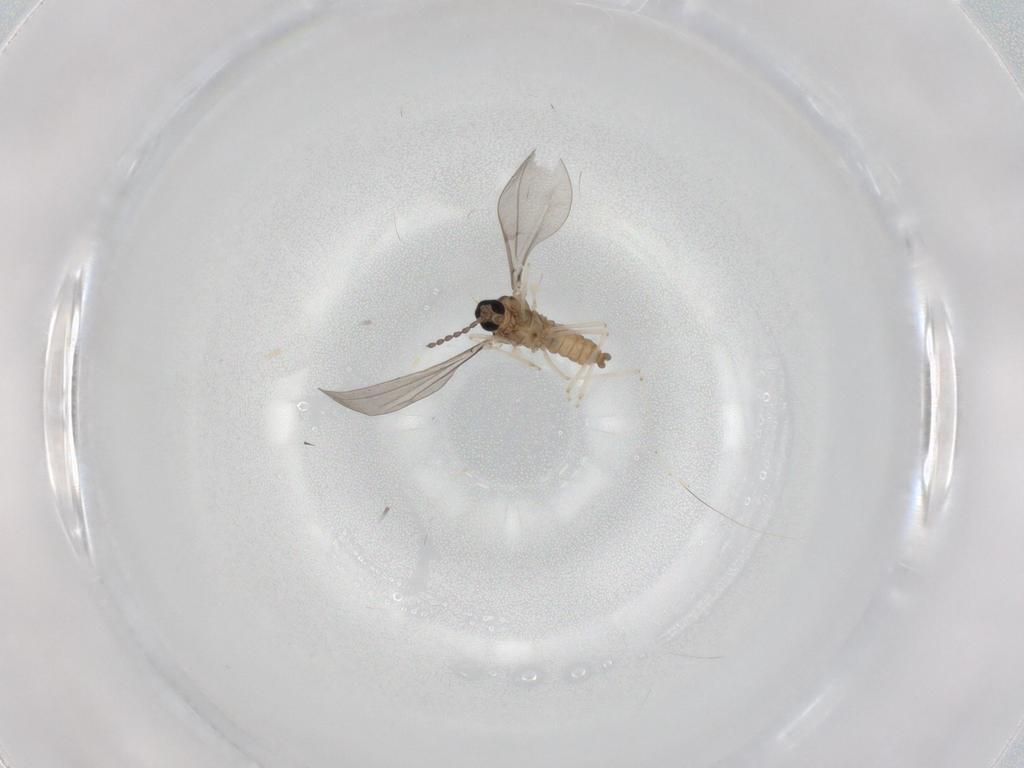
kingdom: Animalia
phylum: Arthropoda
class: Insecta
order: Diptera
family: Cecidomyiidae
